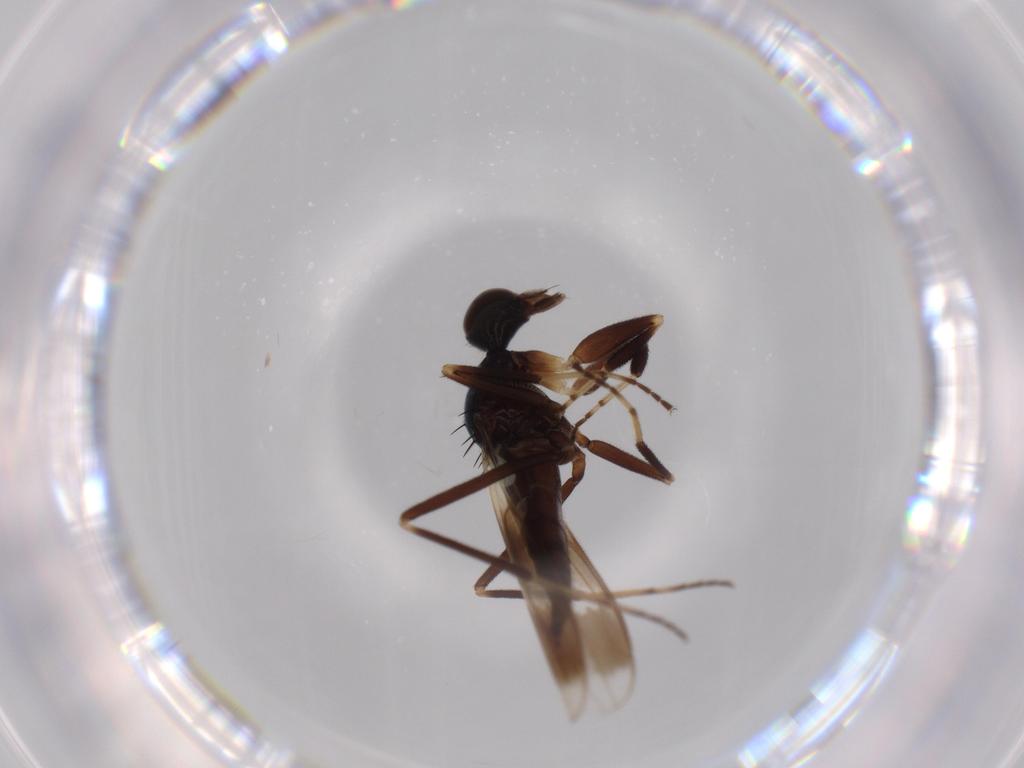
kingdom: Animalia
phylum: Arthropoda
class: Insecta
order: Diptera
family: Hybotidae
